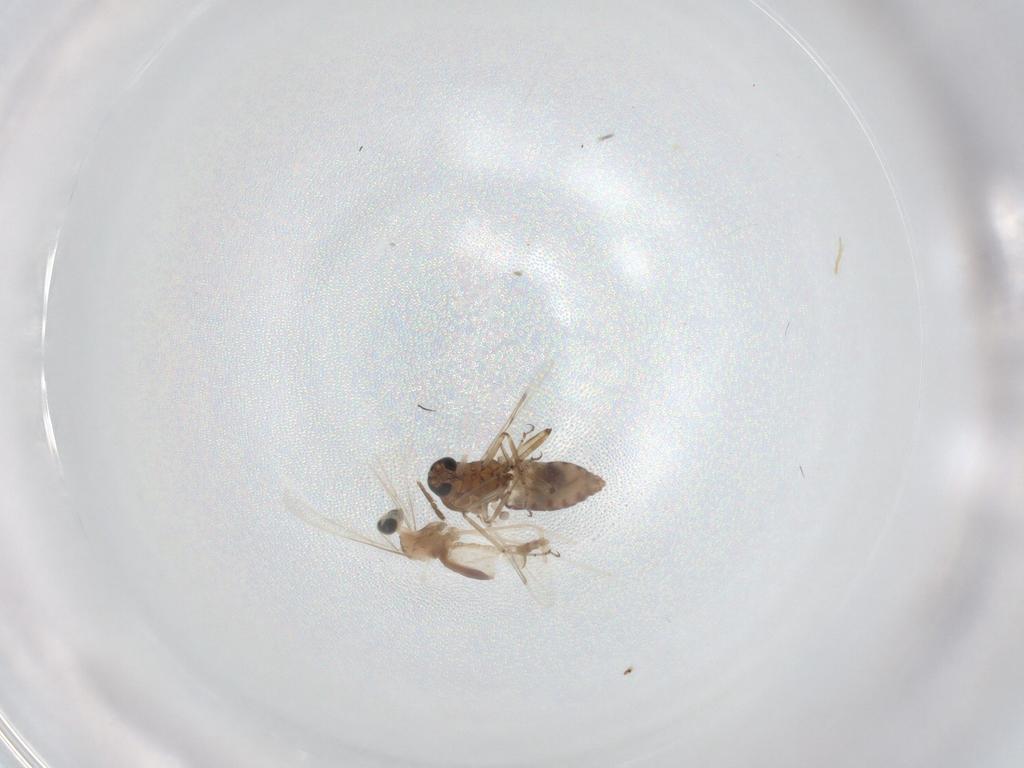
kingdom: Animalia
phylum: Arthropoda
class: Insecta
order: Diptera
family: Cecidomyiidae
